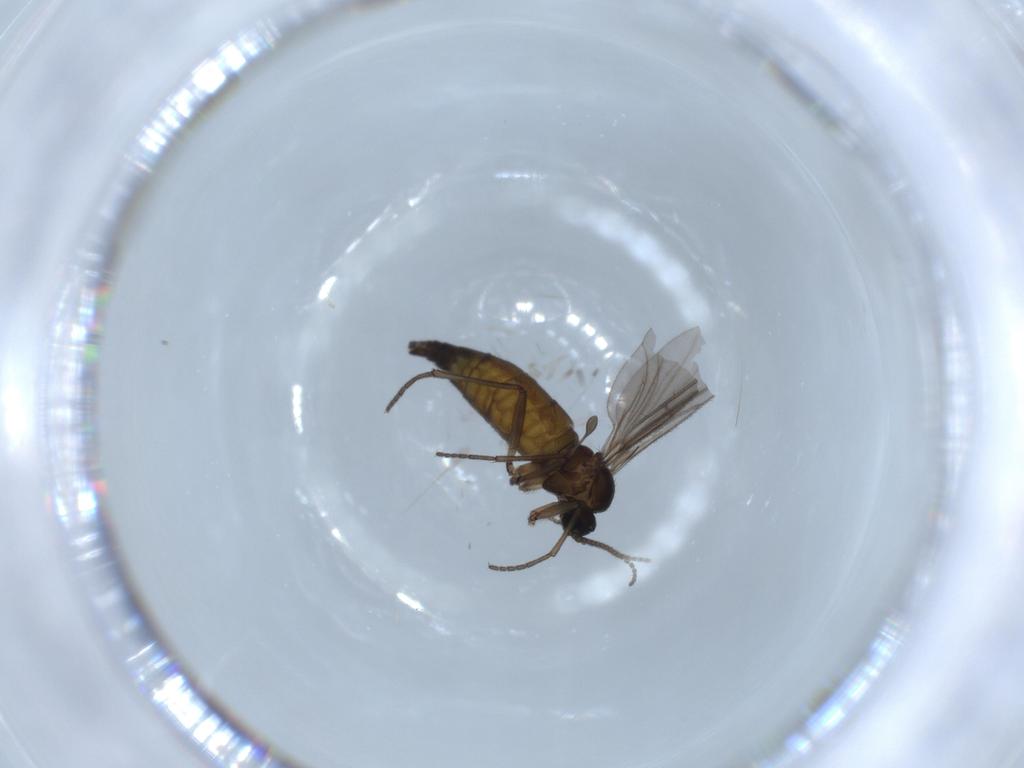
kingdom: Animalia
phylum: Arthropoda
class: Insecta
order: Diptera
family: Sciaridae
